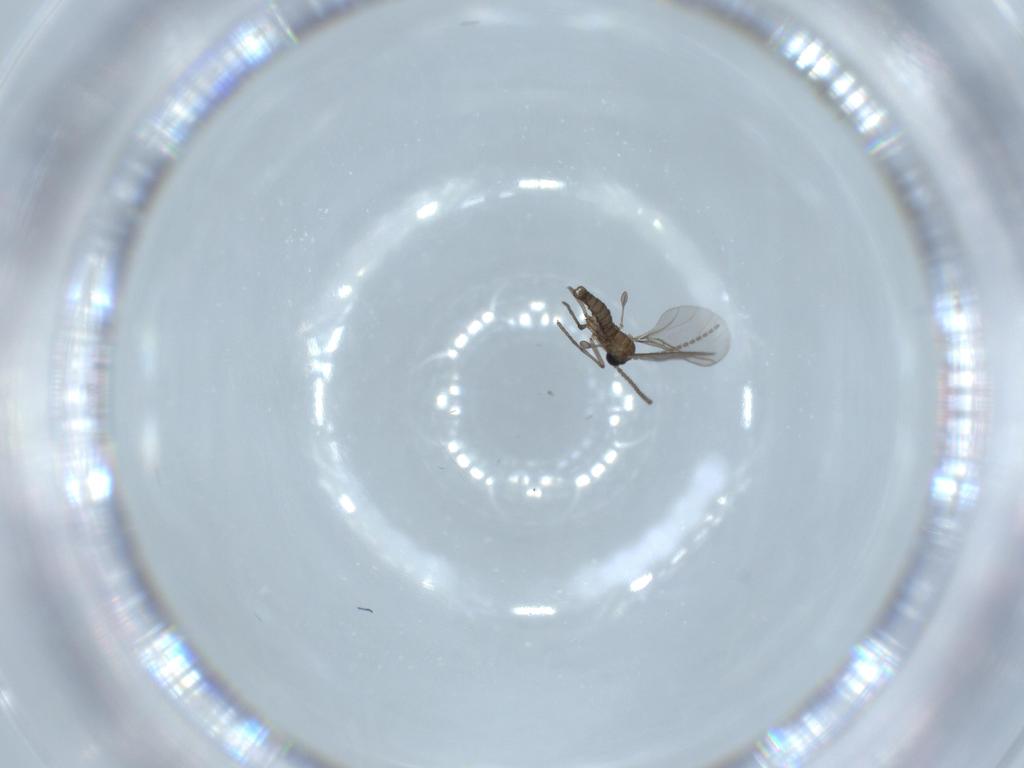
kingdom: Animalia
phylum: Arthropoda
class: Insecta
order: Diptera
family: Sciaridae
